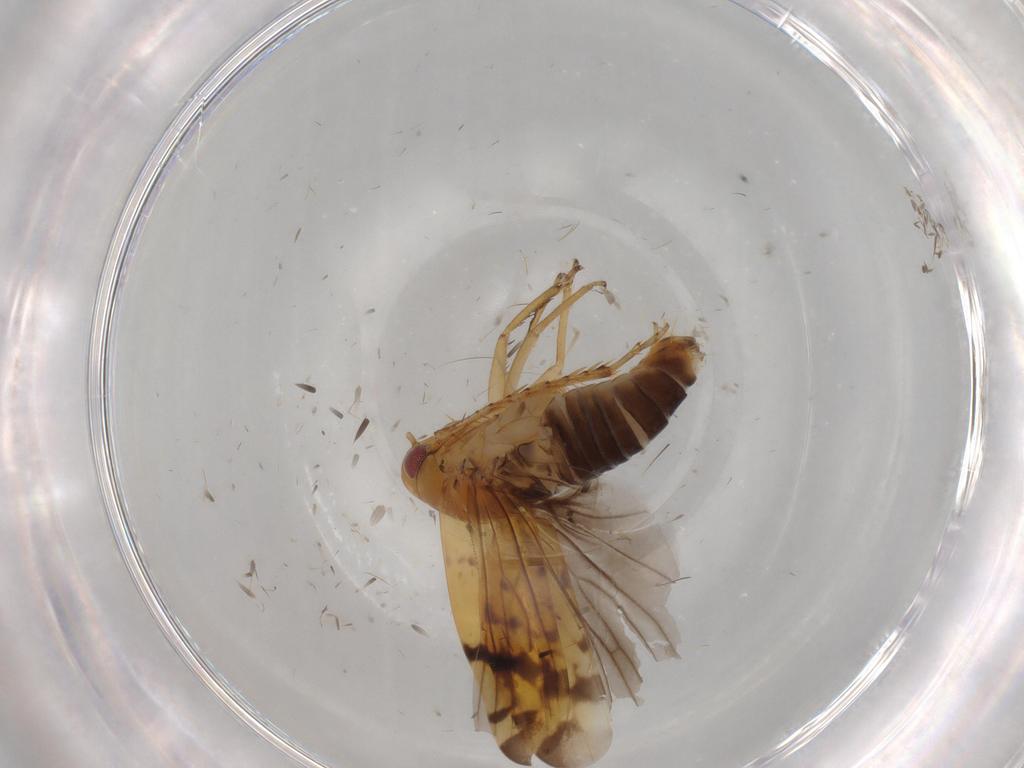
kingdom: Animalia
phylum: Arthropoda
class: Insecta
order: Hemiptera
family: Cicadellidae
